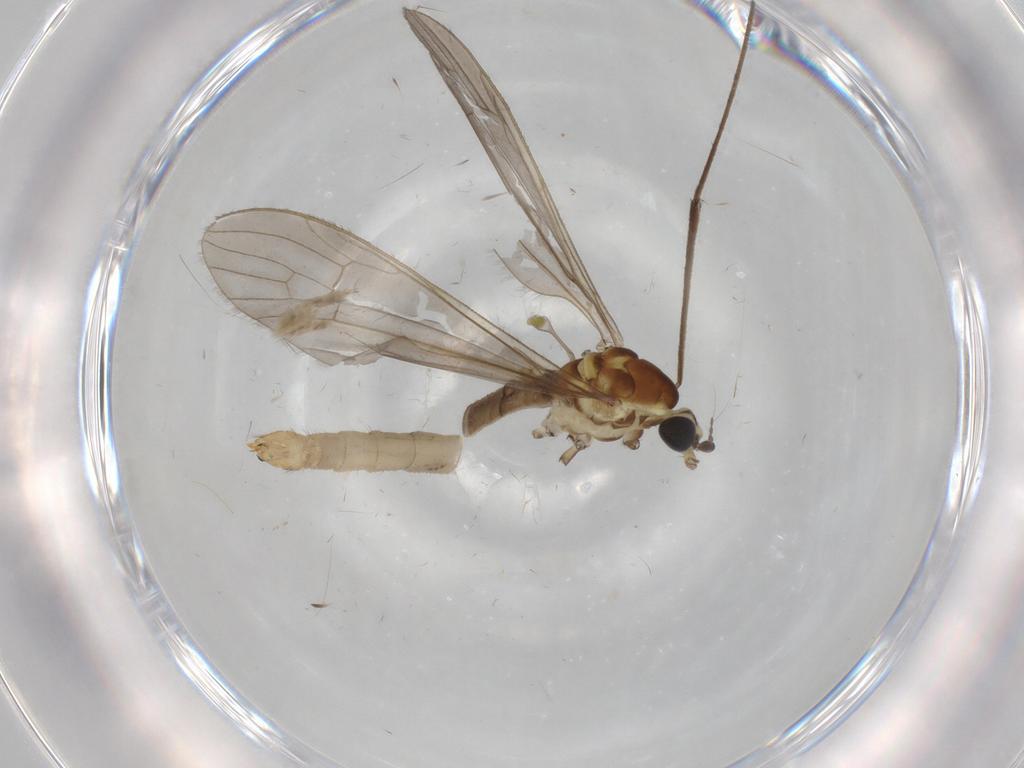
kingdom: Animalia
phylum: Arthropoda
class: Insecta
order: Diptera
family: Limoniidae
